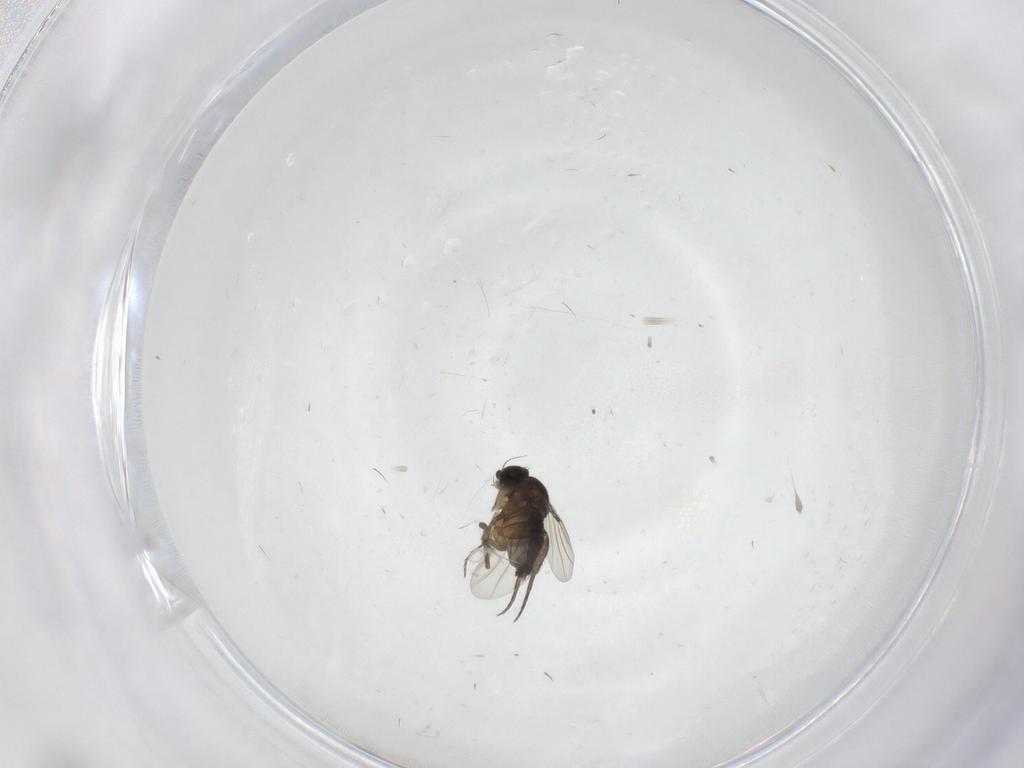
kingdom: Animalia
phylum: Arthropoda
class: Insecta
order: Diptera
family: Phoridae
